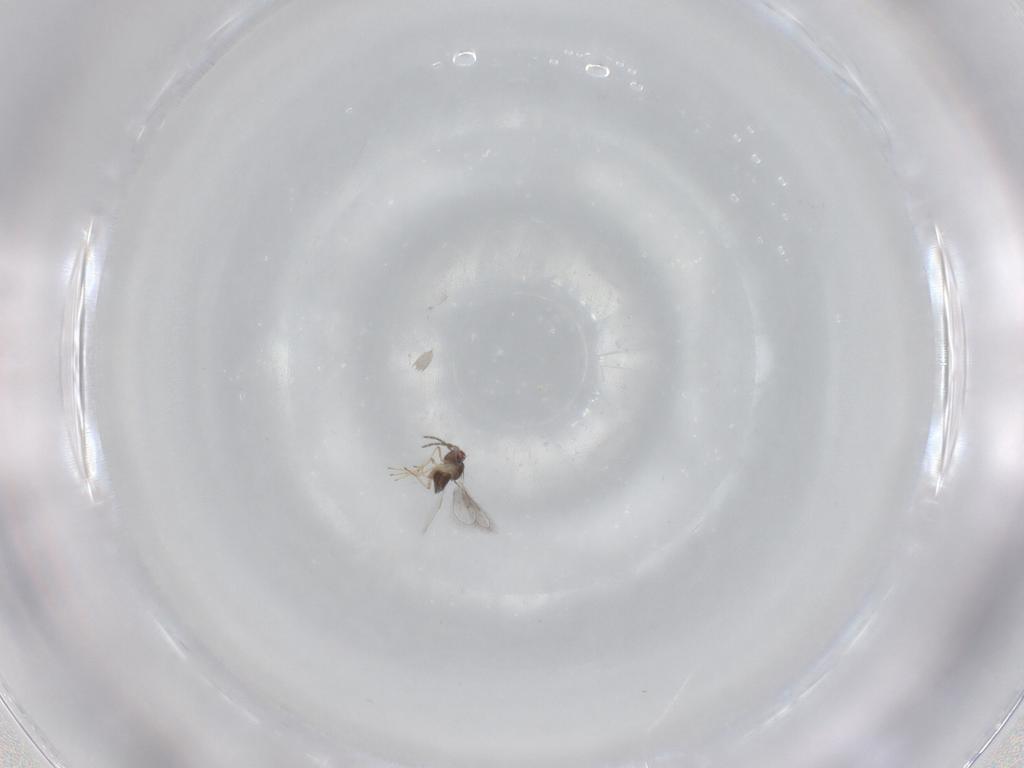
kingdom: Animalia
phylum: Arthropoda
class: Insecta
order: Hymenoptera
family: Eulophidae
